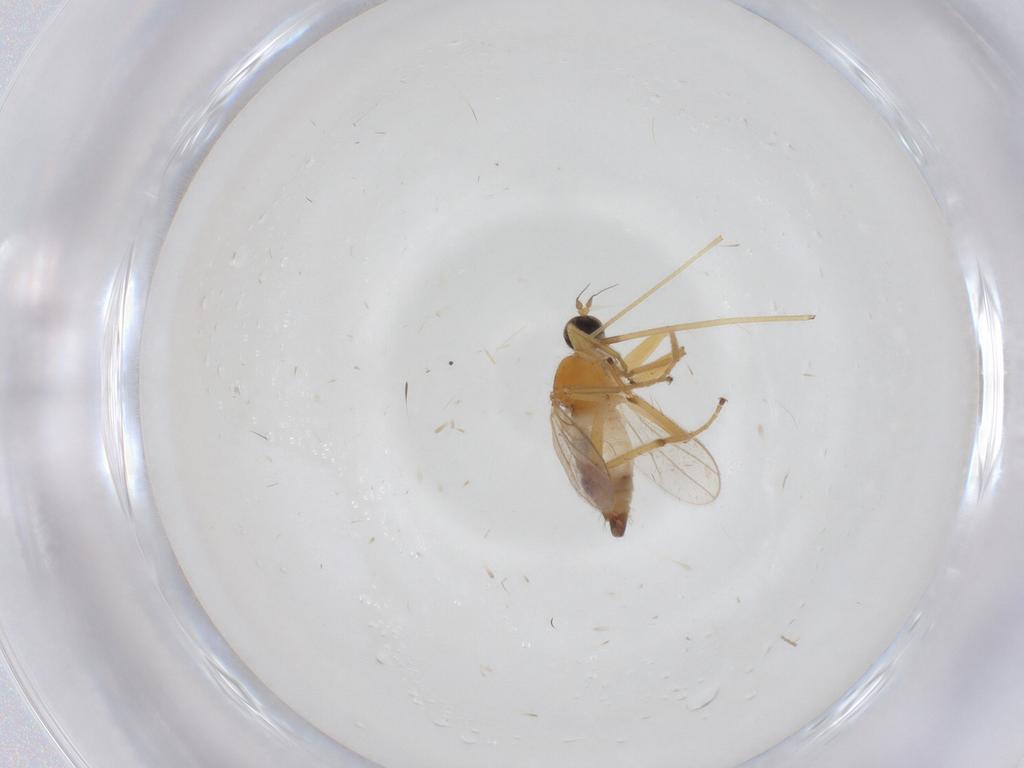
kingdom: Animalia
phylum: Arthropoda
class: Insecta
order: Diptera
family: Hybotidae
